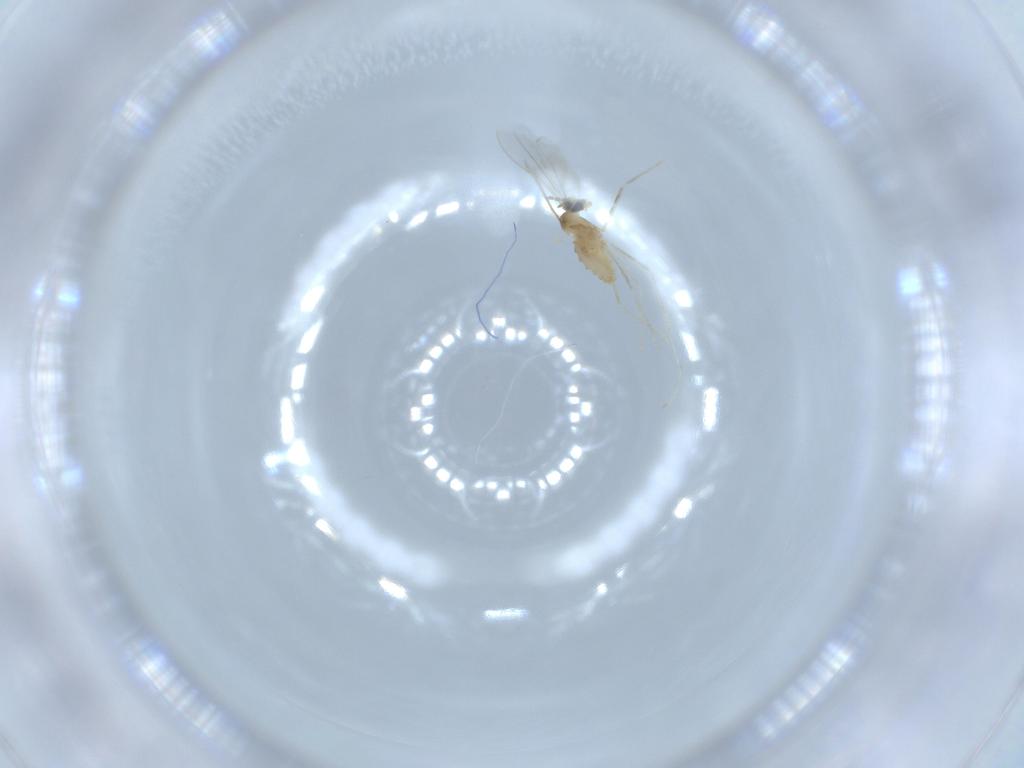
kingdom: Animalia
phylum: Arthropoda
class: Insecta
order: Diptera
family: Cecidomyiidae
